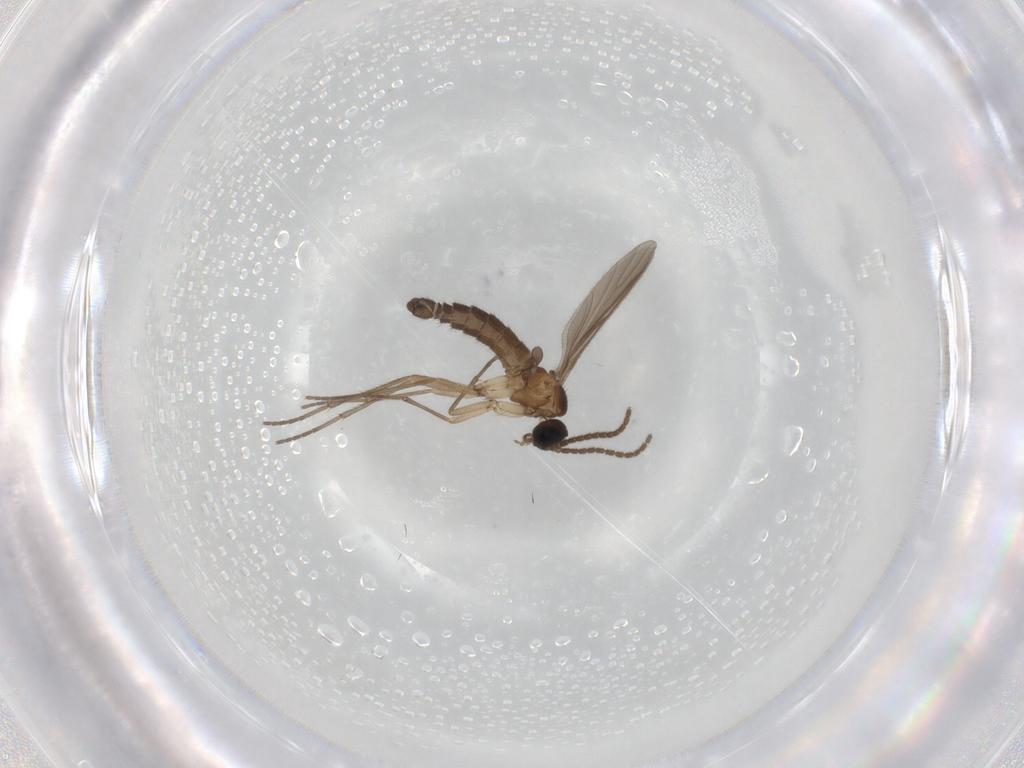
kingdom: Animalia
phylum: Arthropoda
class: Insecta
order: Diptera
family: Sciaridae
